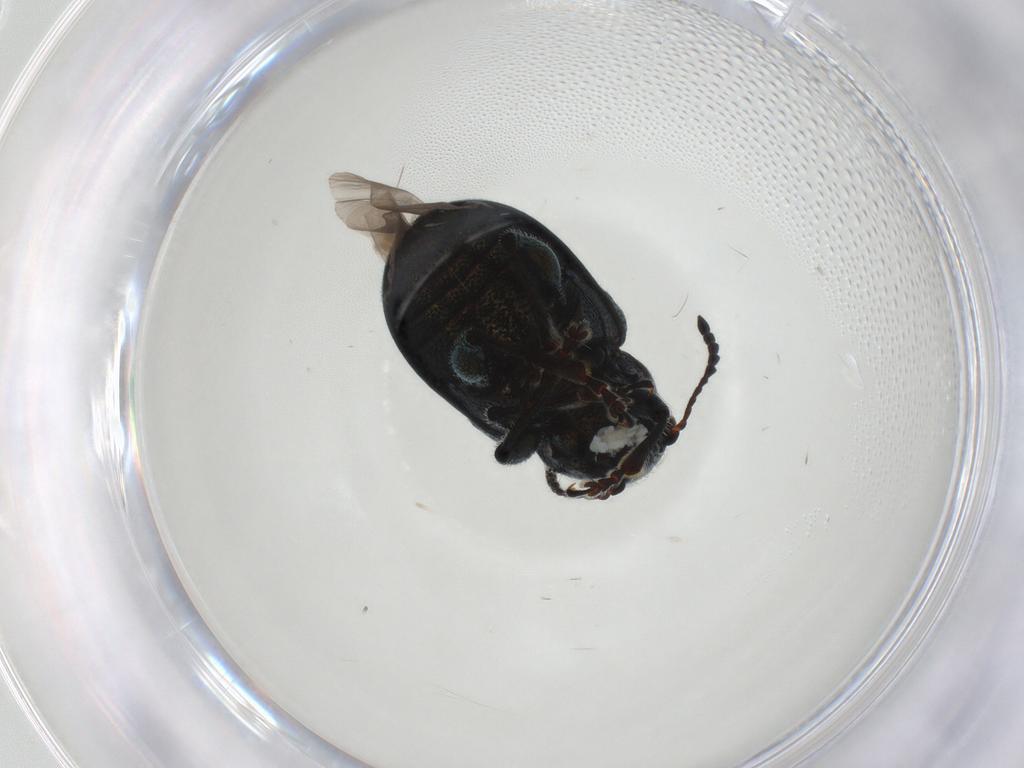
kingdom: Animalia
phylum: Arthropoda
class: Insecta
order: Coleoptera
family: Chrysomelidae
